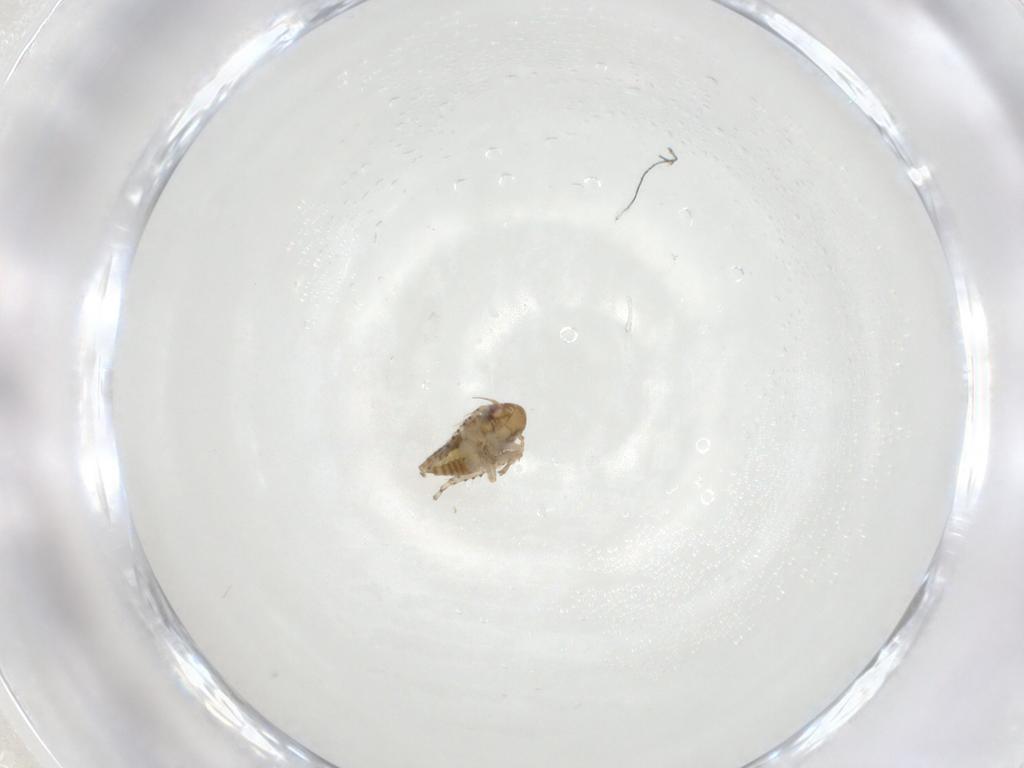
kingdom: Animalia
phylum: Arthropoda
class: Insecta
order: Hemiptera
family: Cicadellidae
